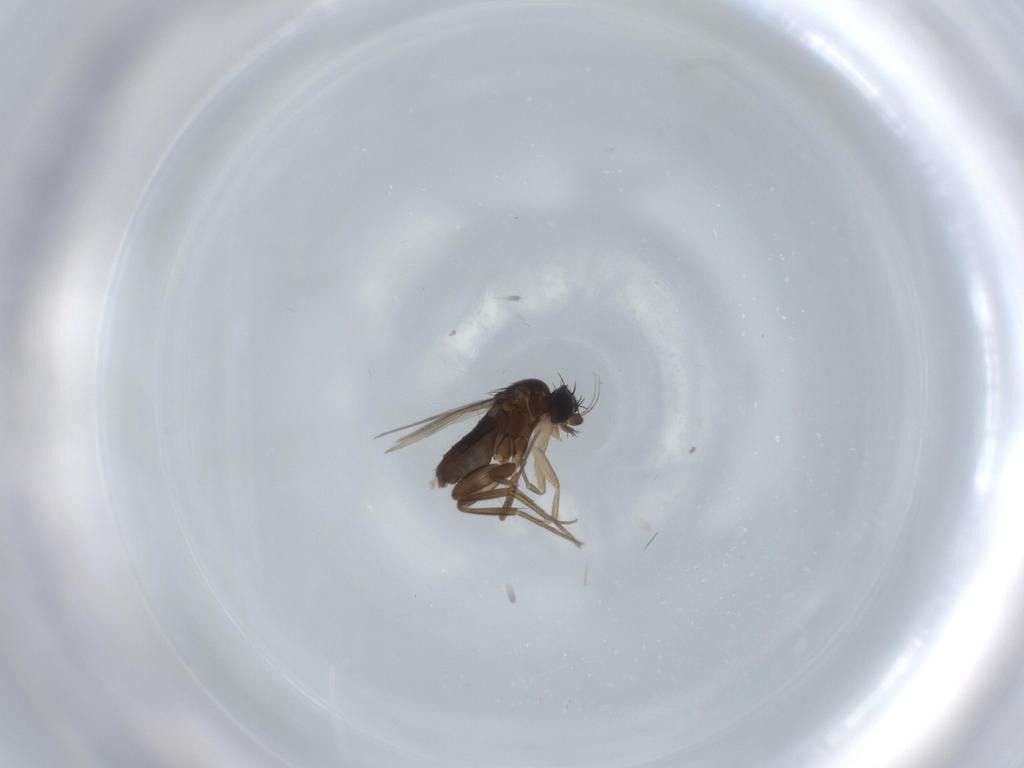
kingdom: Animalia
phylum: Arthropoda
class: Insecta
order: Diptera
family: Phoridae
